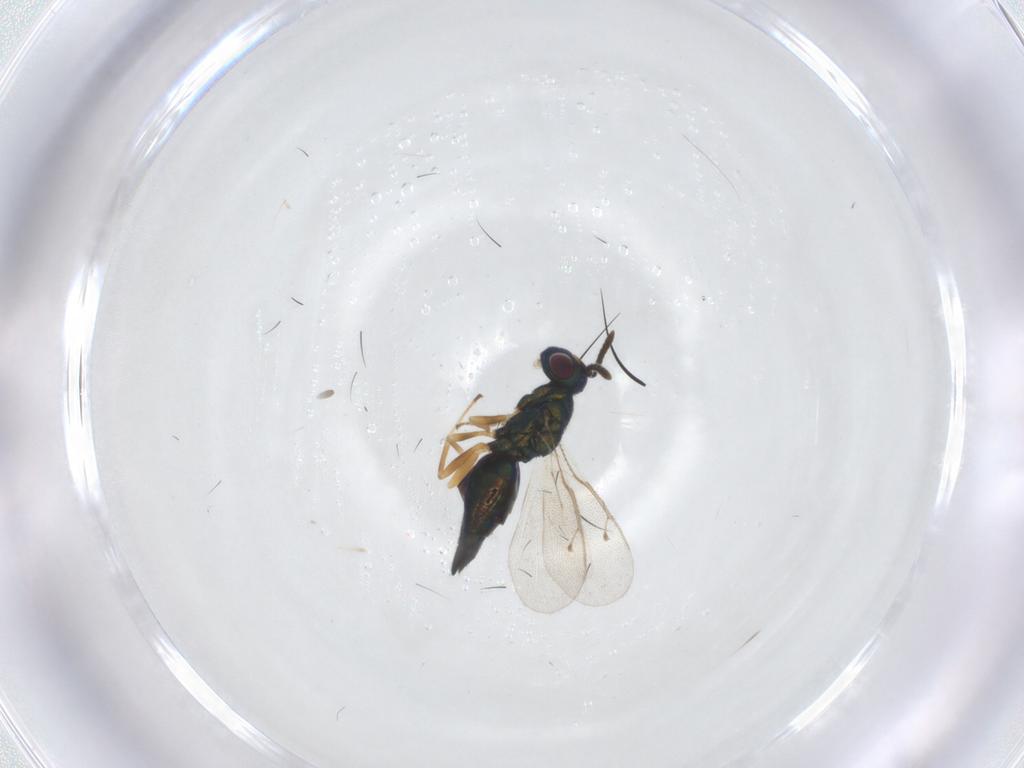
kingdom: Animalia
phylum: Arthropoda
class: Insecta
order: Hymenoptera
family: Pteromalidae
